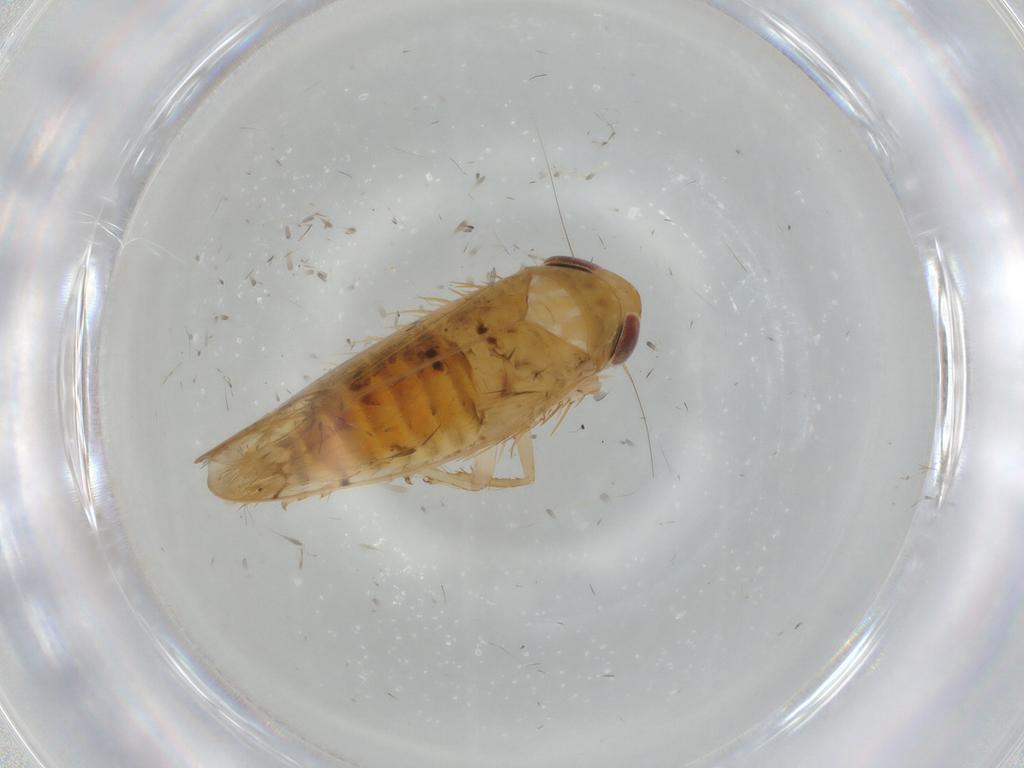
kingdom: Animalia
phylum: Arthropoda
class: Insecta
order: Hemiptera
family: Cicadellidae
